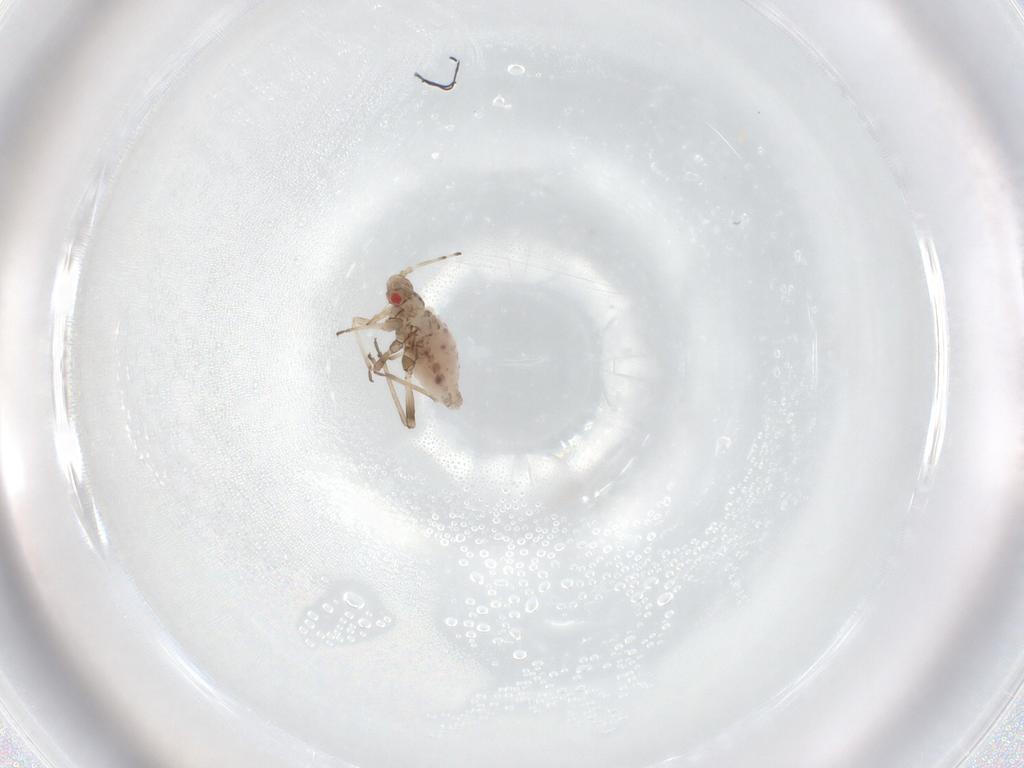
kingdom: Animalia
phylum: Arthropoda
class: Insecta
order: Hemiptera
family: Aphididae
